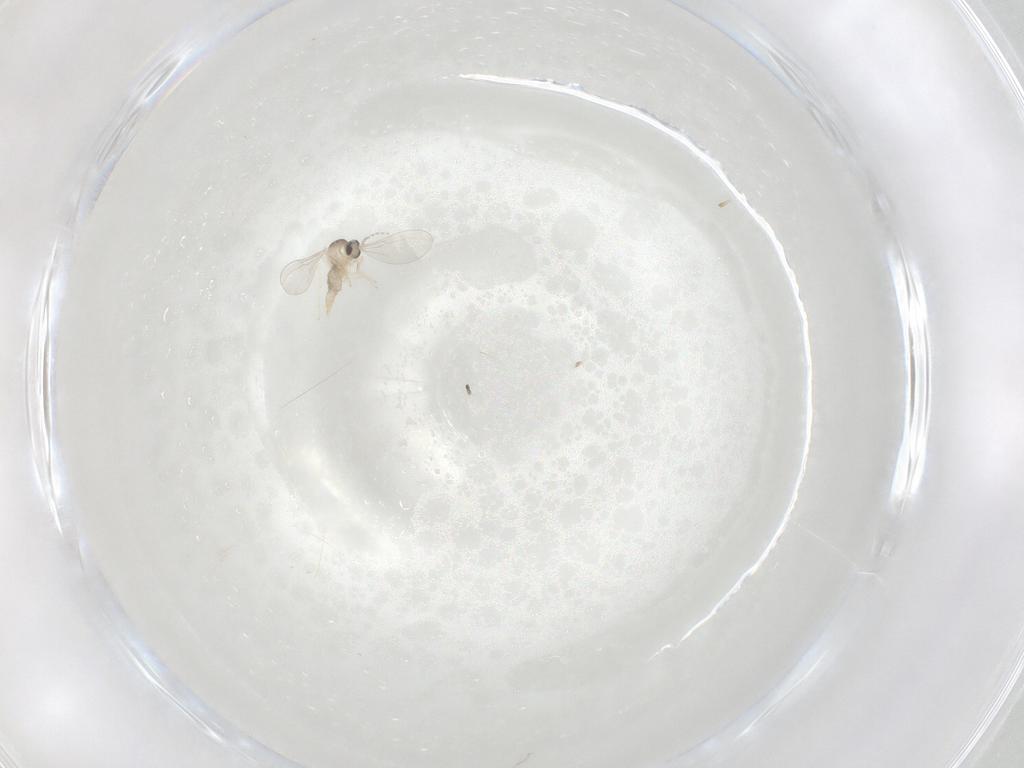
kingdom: Animalia
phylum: Arthropoda
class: Insecta
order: Diptera
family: Cecidomyiidae
